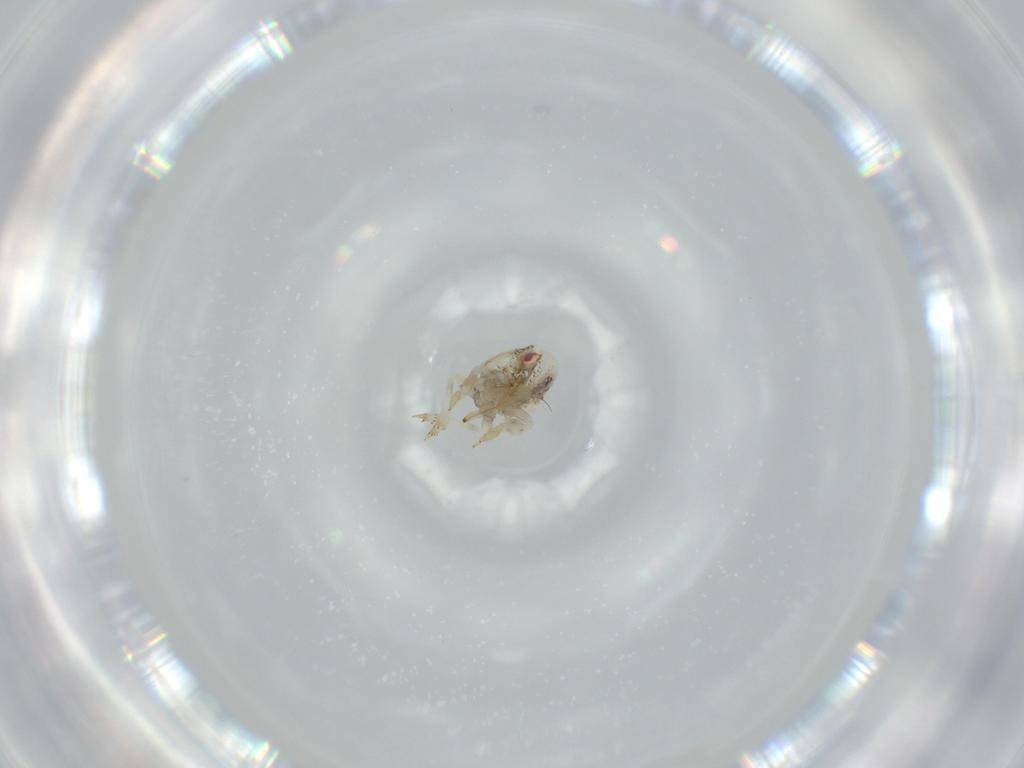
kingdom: Animalia
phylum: Arthropoda
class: Insecta
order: Hemiptera
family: Acanaloniidae
